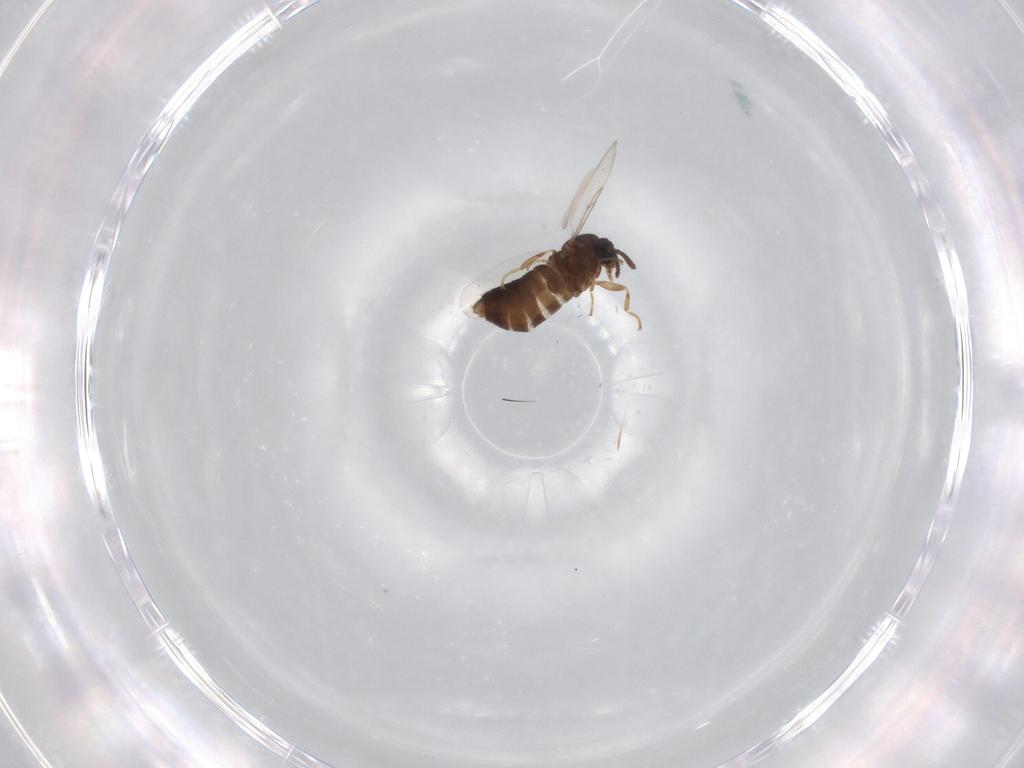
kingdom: Animalia
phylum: Arthropoda
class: Insecta
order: Diptera
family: Scatopsidae
